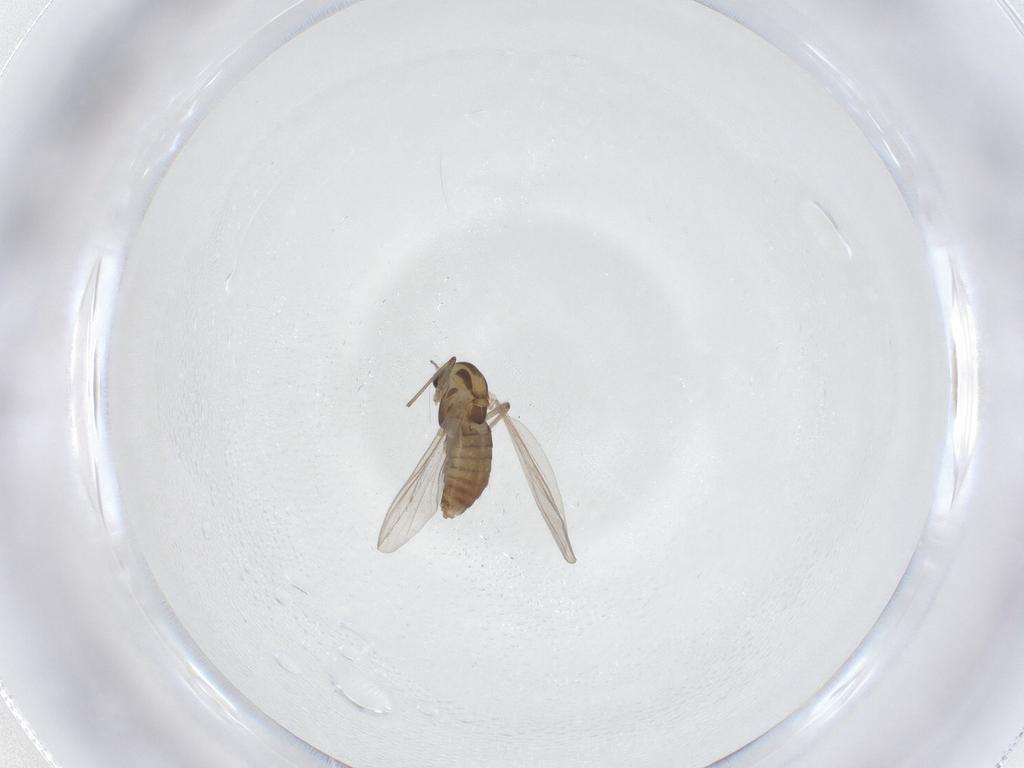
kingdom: Animalia
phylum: Arthropoda
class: Insecta
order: Diptera
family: Chironomidae
